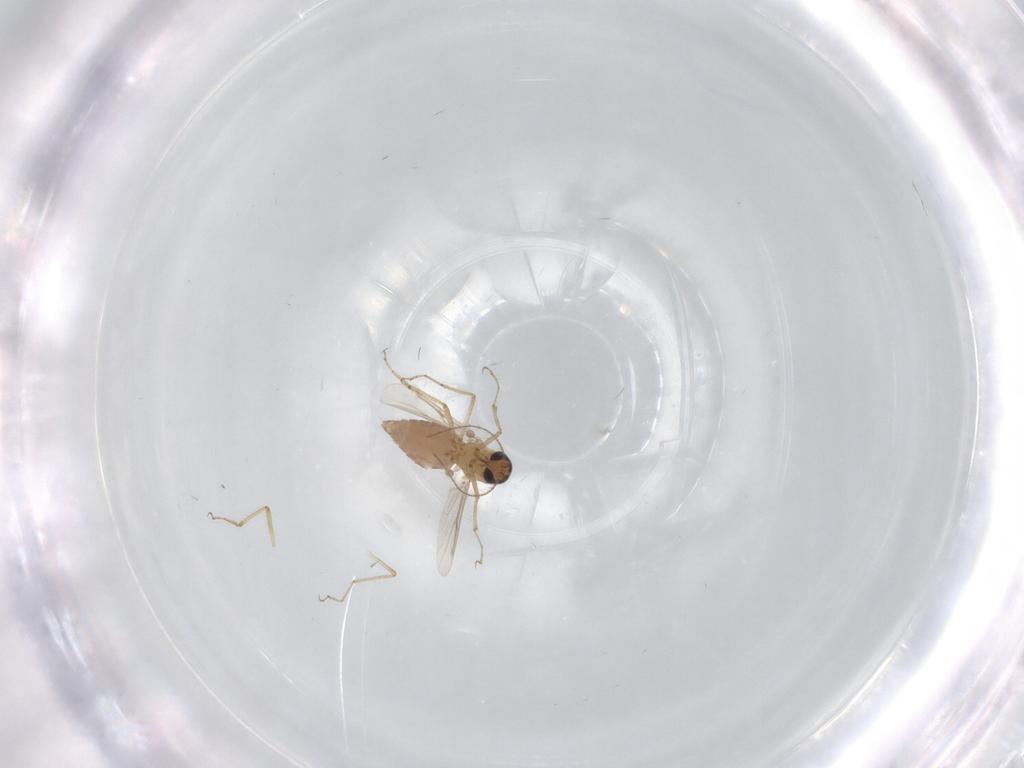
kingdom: Animalia
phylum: Arthropoda
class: Insecta
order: Diptera
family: Ceratopogonidae
